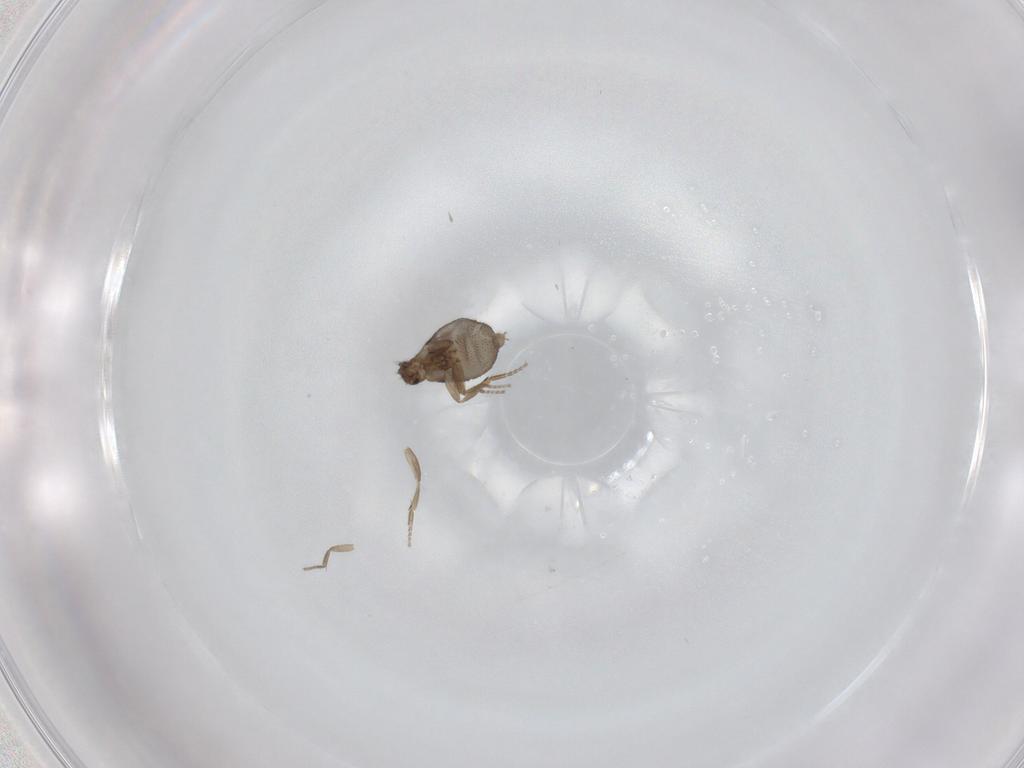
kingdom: Animalia
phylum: Arthropoda
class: Insecta
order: Diptera
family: Phoridae
